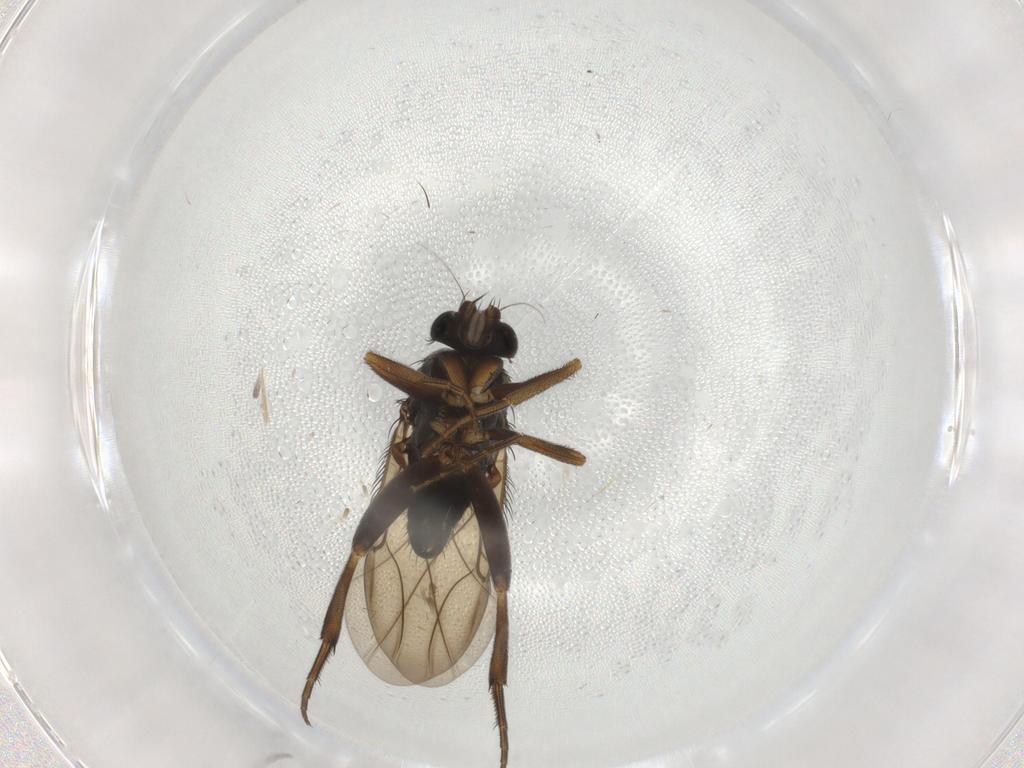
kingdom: Animalia
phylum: Arthropoda
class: Insecta
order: Diptera
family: Phoridae
